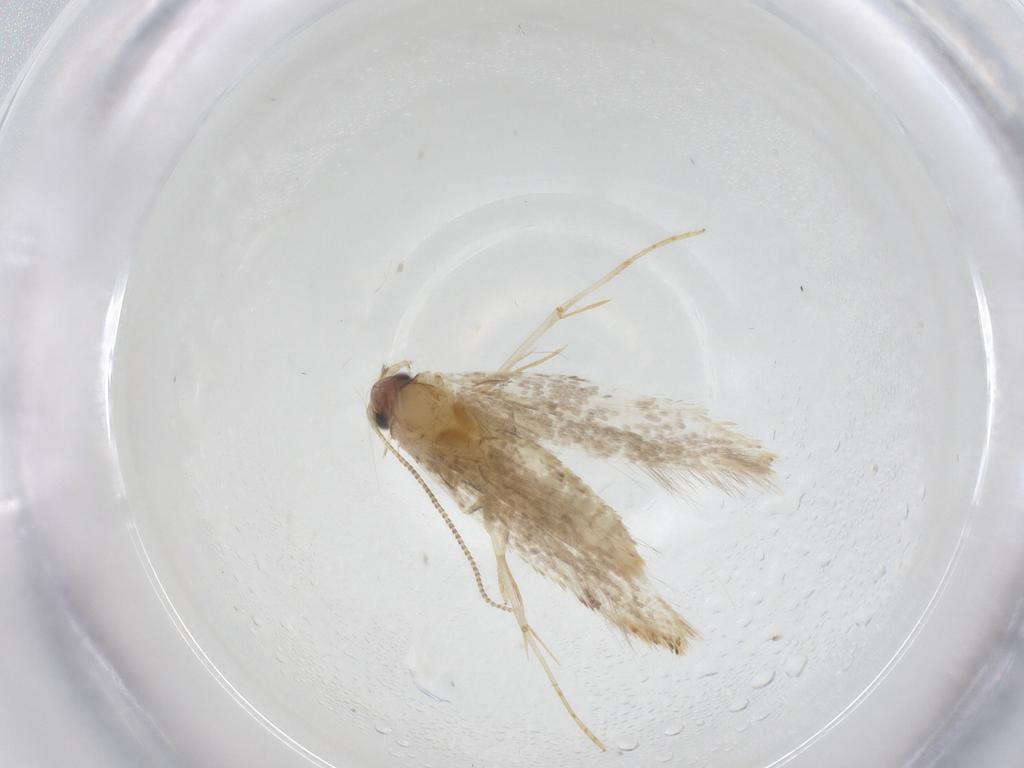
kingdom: Animalia
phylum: Arthropoda
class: Insecta
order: Lepidoptera
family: Tineidae
